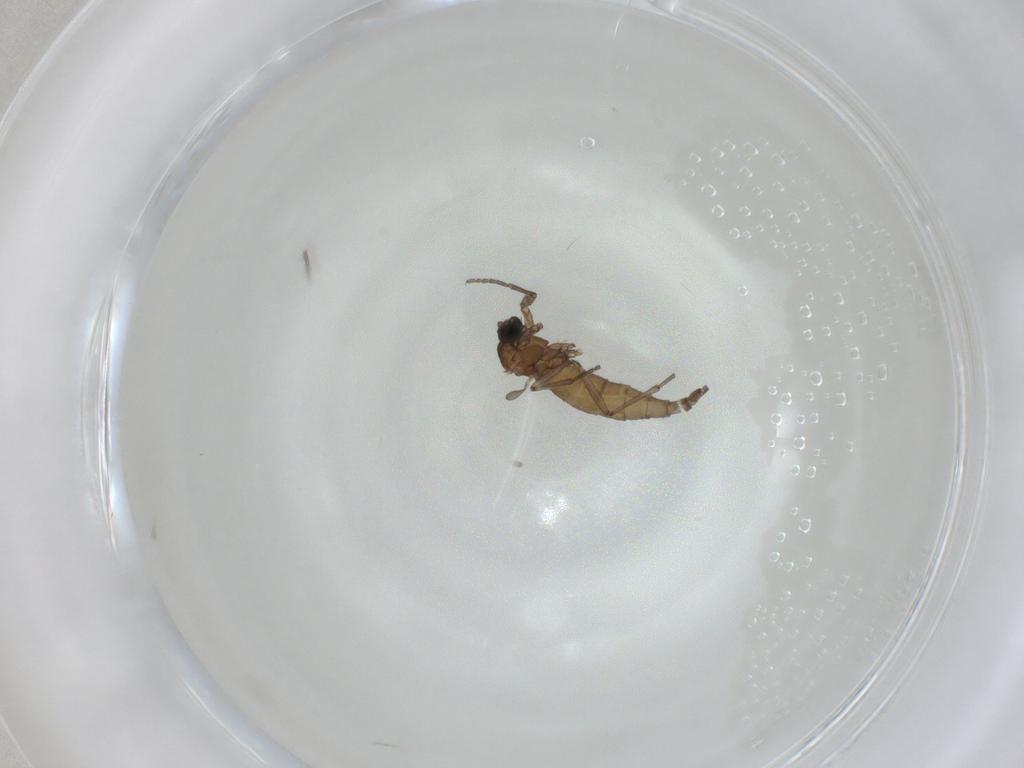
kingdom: Animalia
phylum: Arthropoda
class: Insecta
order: Diptera
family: Sciaridae
